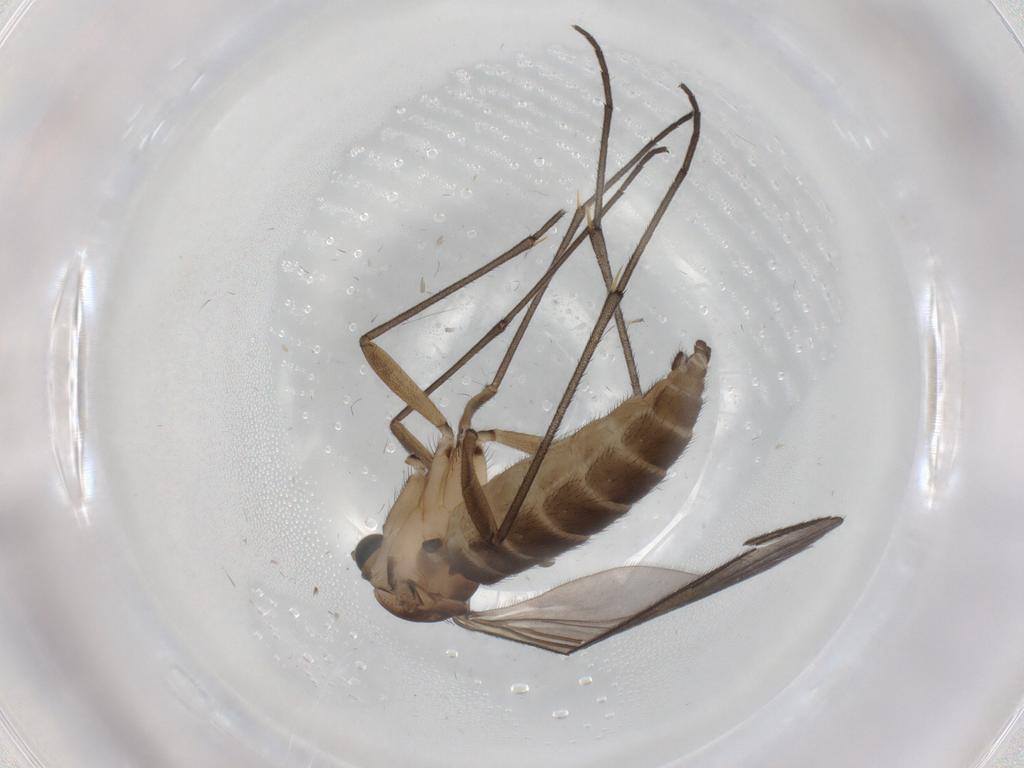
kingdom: Animalia
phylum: Arthropoda
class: Insecta
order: Diptera
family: Sciaridae
